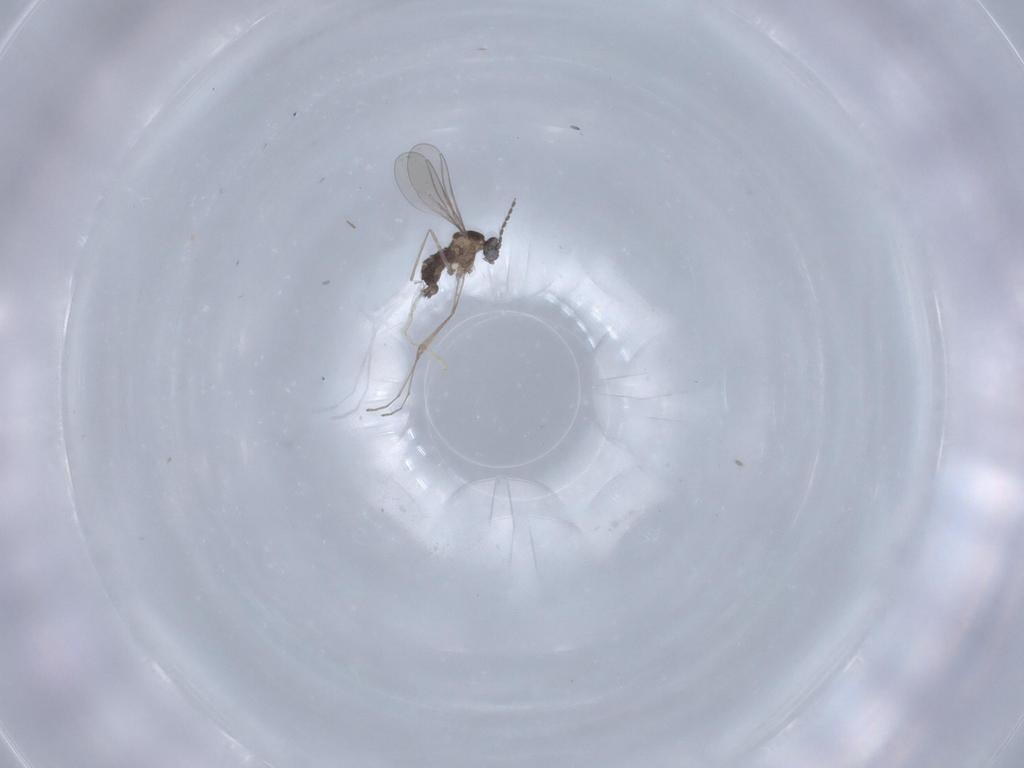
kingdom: Animalia
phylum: Arthropoda
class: Insecta
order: Diptera
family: Cecidomyiidae
